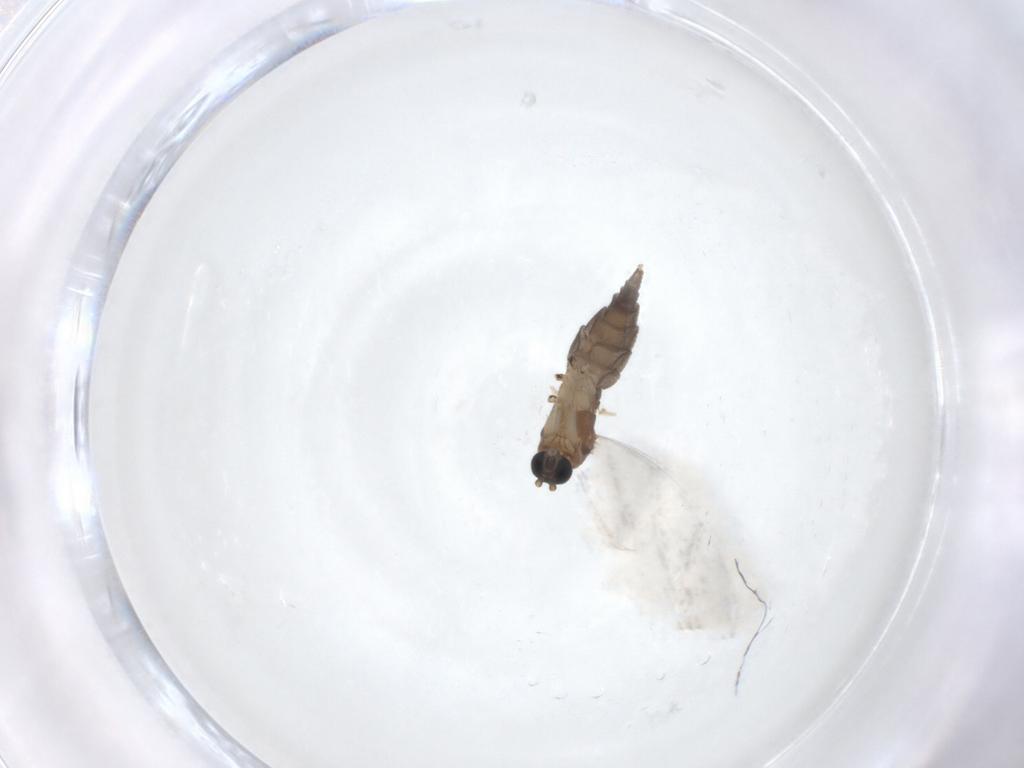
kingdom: Animalia
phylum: Arthropoda
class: Insecta
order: Diptera
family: Sciaridae
